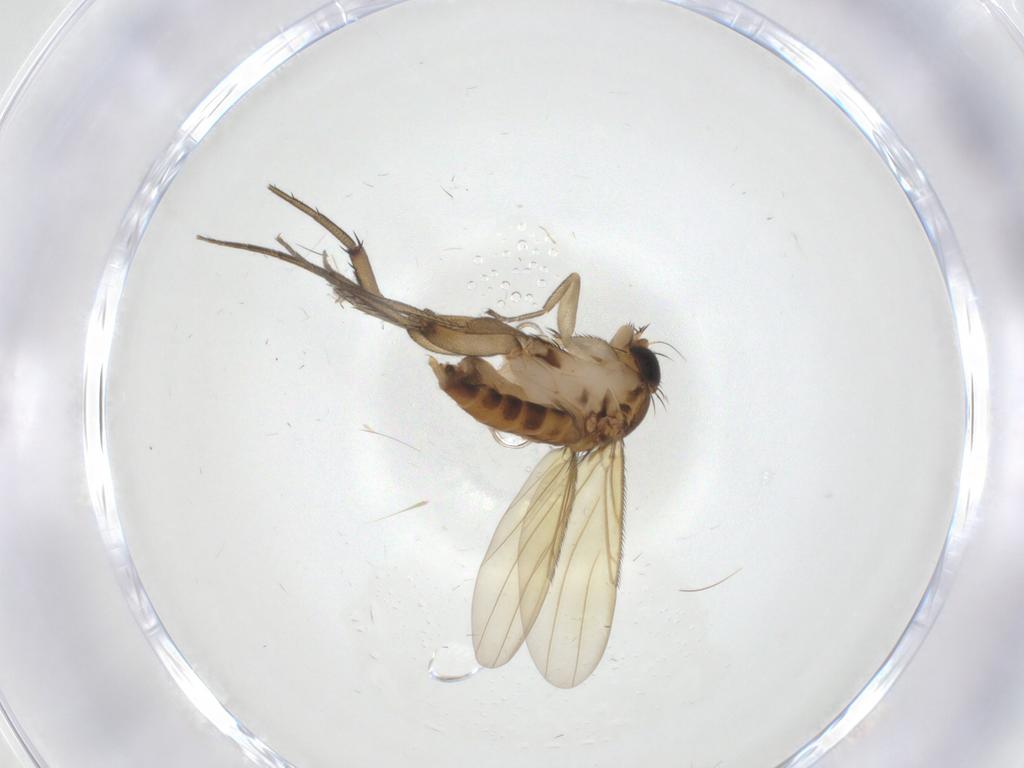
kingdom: Animalia
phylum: Arthropoda
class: Insecta
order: Diptera
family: Phoridae
